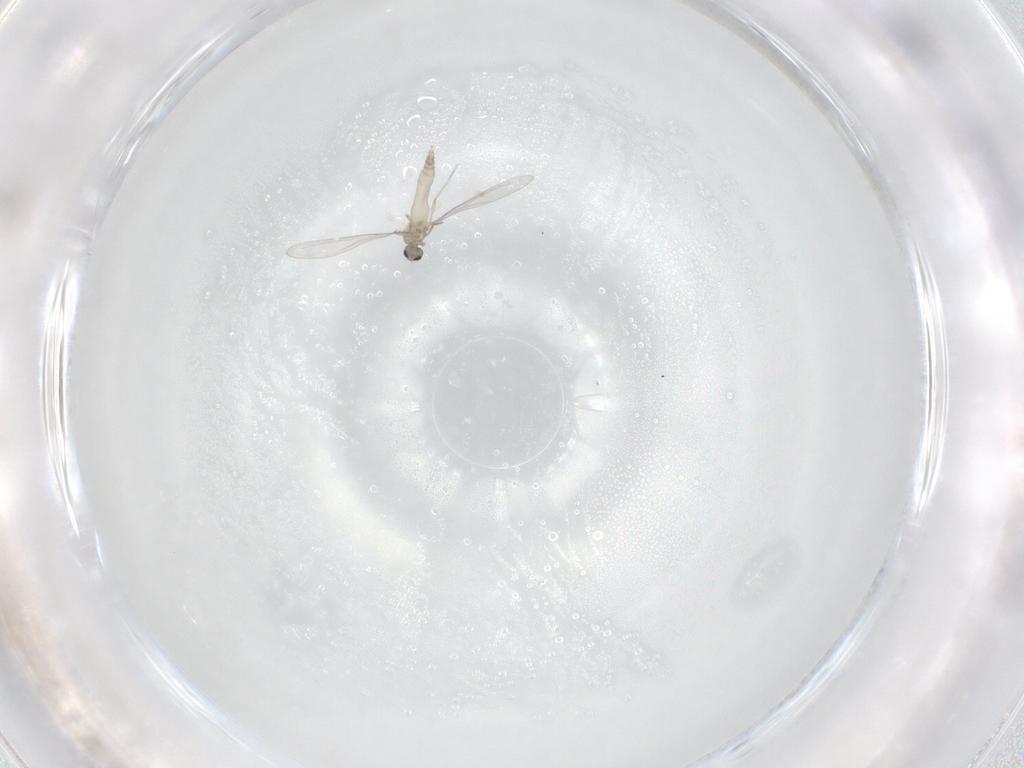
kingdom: Animalia
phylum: Arthropoda
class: Insecta
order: Diptera
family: Cecidomyiidae
